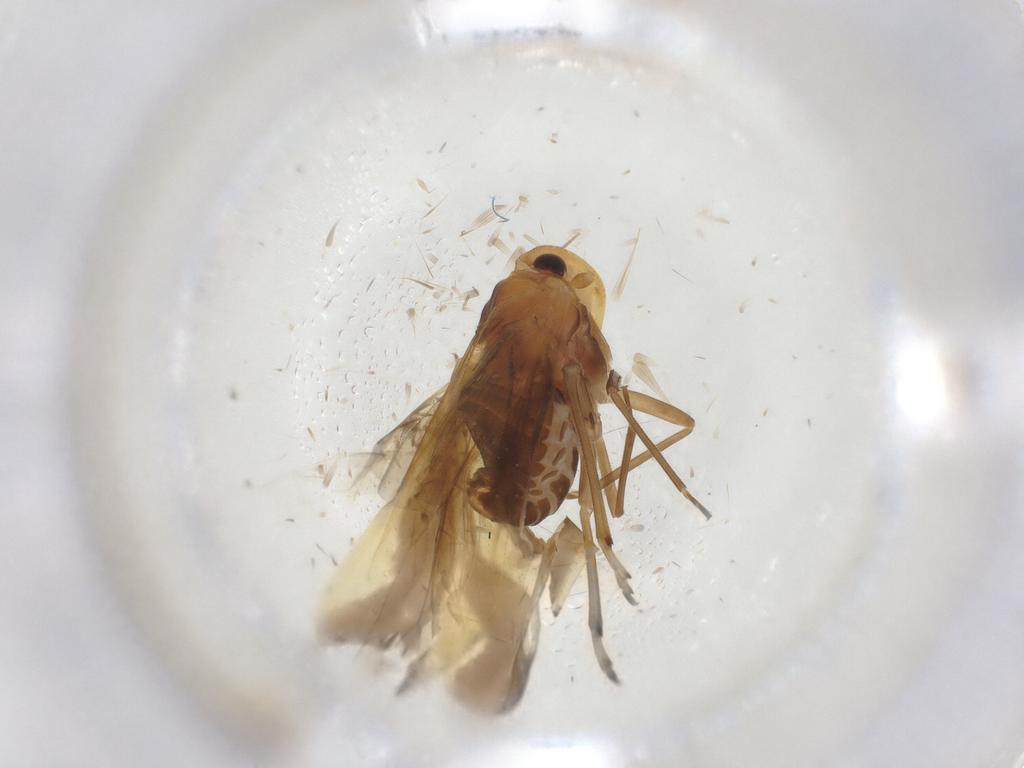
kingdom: Animalia
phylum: Arthropoda
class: Insecta
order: Hemiptera
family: Meenoplidae
